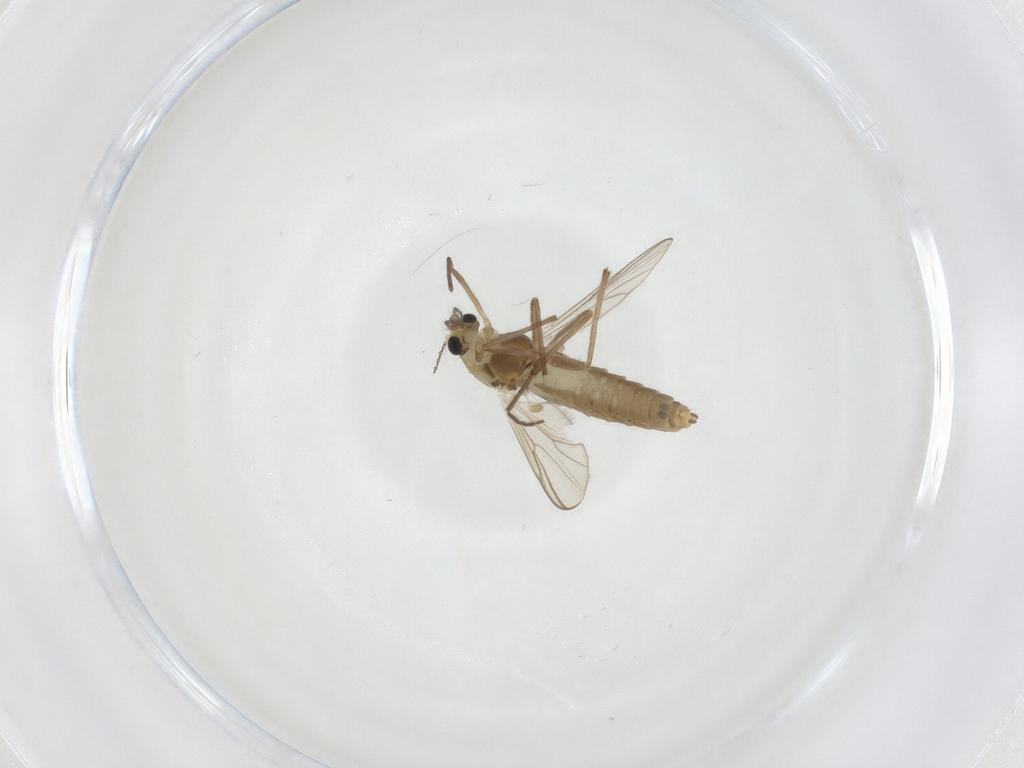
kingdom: Animalia
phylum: Arthropoda
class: Insecta
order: Diptera
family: Chironomidae
